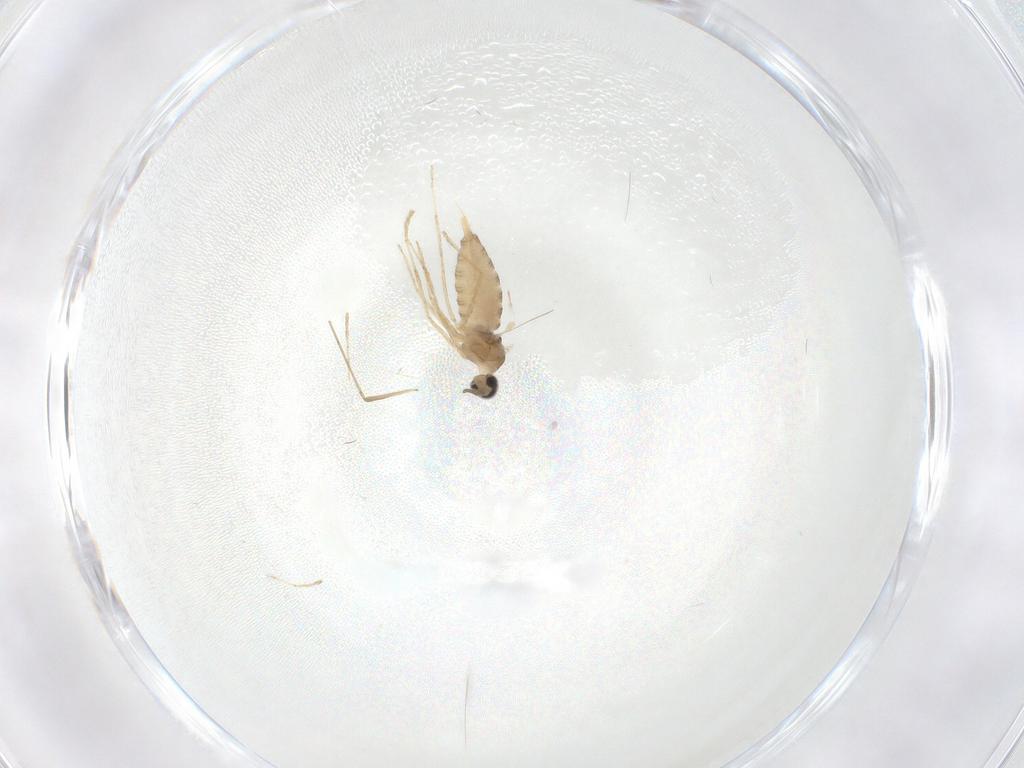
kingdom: Animalia
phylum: Arthropoda
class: Insecta
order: Diptera
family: Cecidomyiidae
